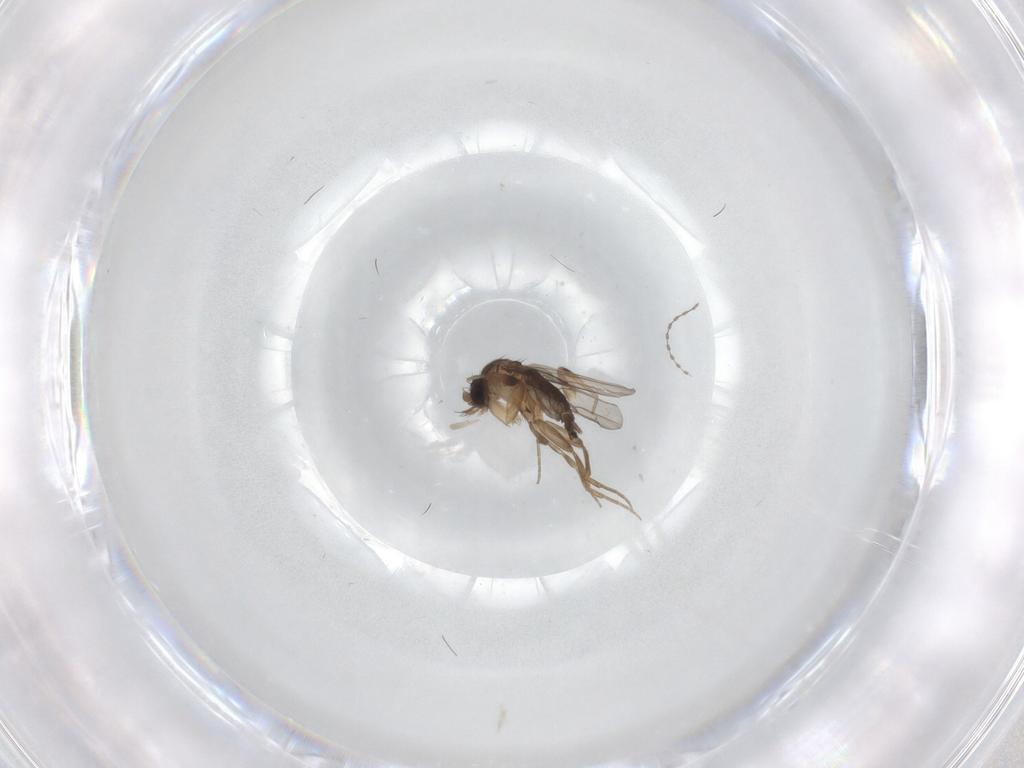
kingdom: Animalia
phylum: Arthropoda
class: Insecta
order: Diptera
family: Phoridae
